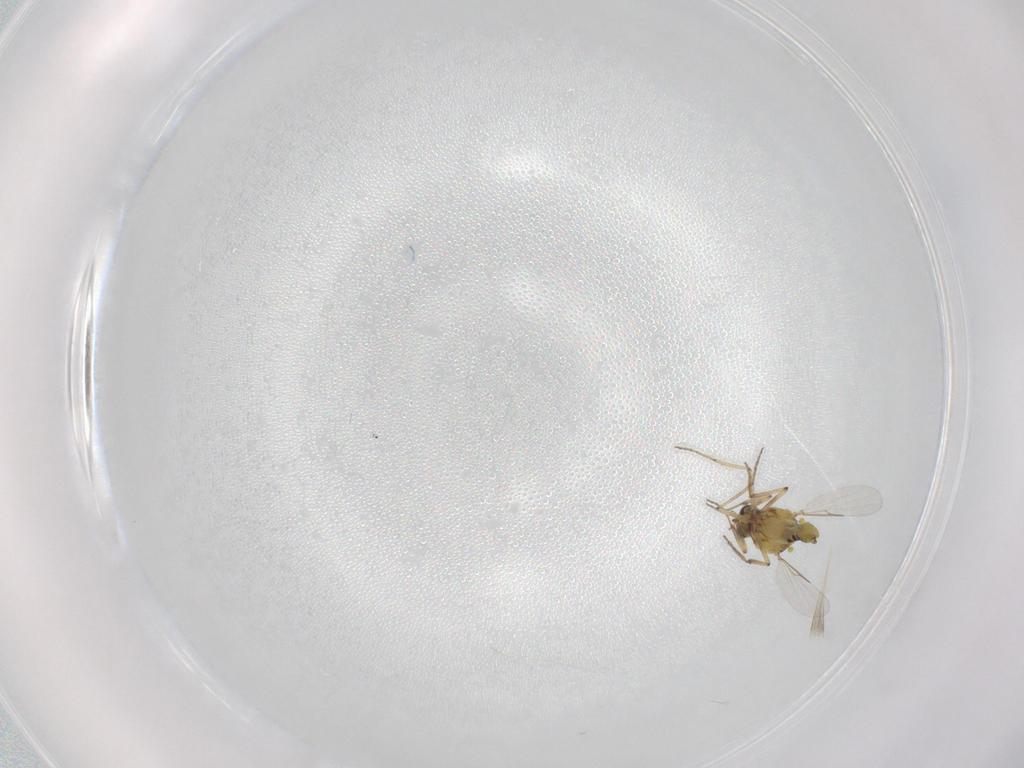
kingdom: Animalia
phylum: Arthropoda
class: Insecta
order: Diptera
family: Ceratopogonidae
